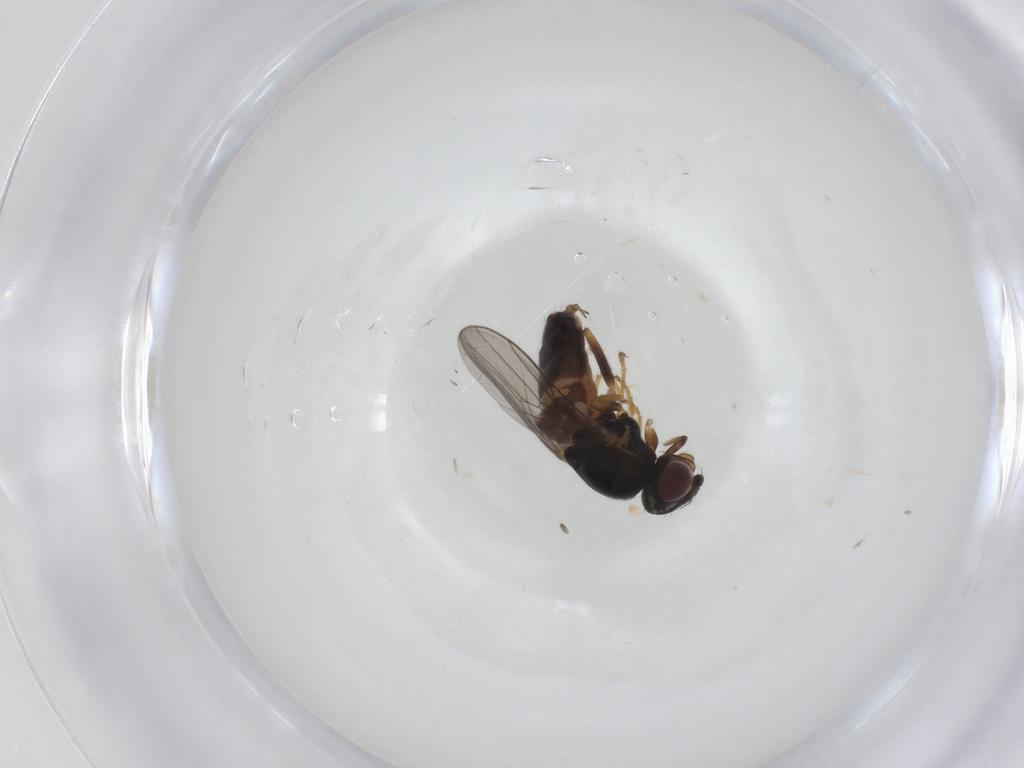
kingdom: Animalia
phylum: Arthropoda
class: Insecta
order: Diptera
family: Chloropidae
